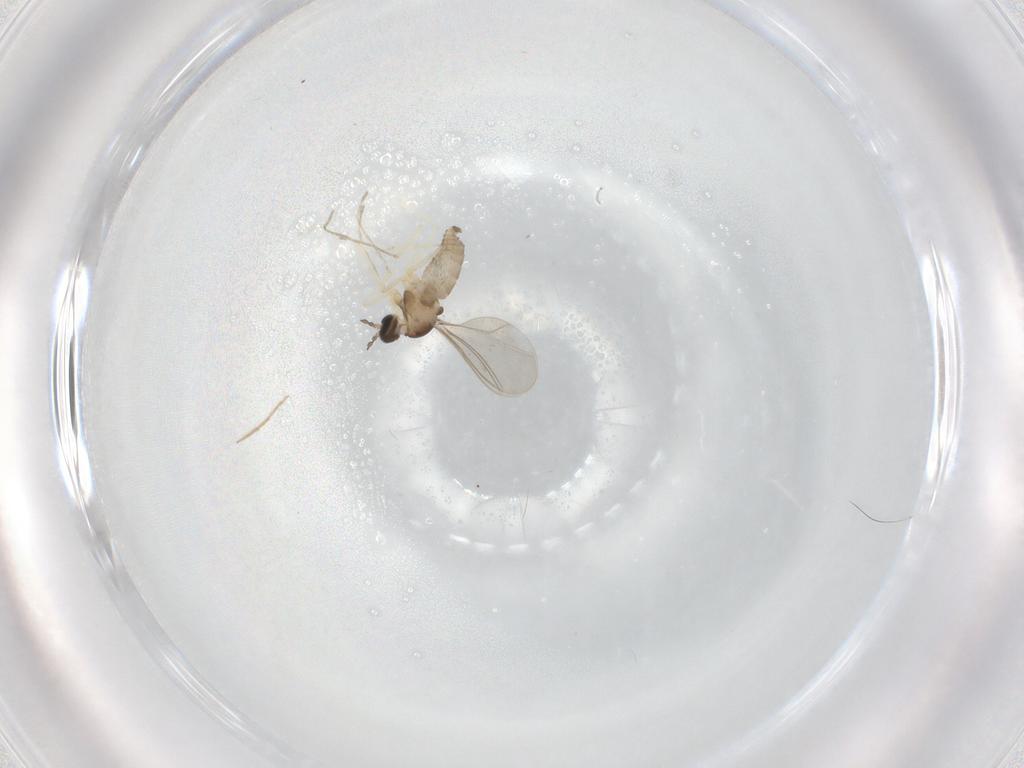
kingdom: Animalia
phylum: Arthropoda
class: Insecta
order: Diptera
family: Cecidomyiidae
